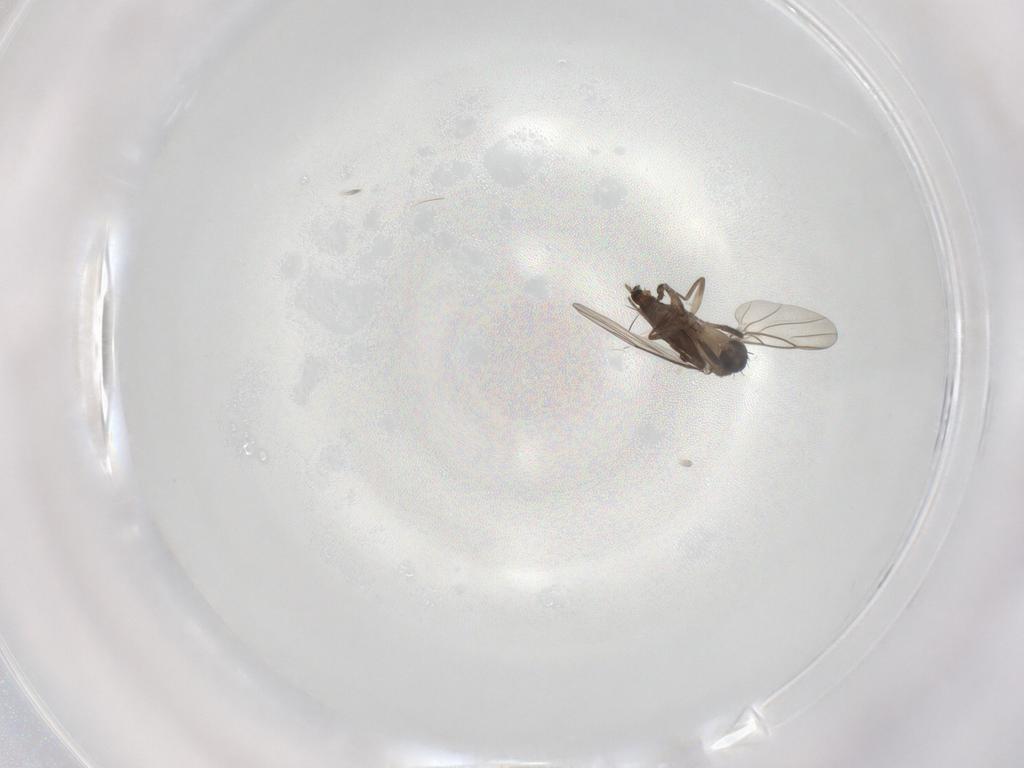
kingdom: Animalia
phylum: Arthropoda
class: Insecta
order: Diptera
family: Phoridae
